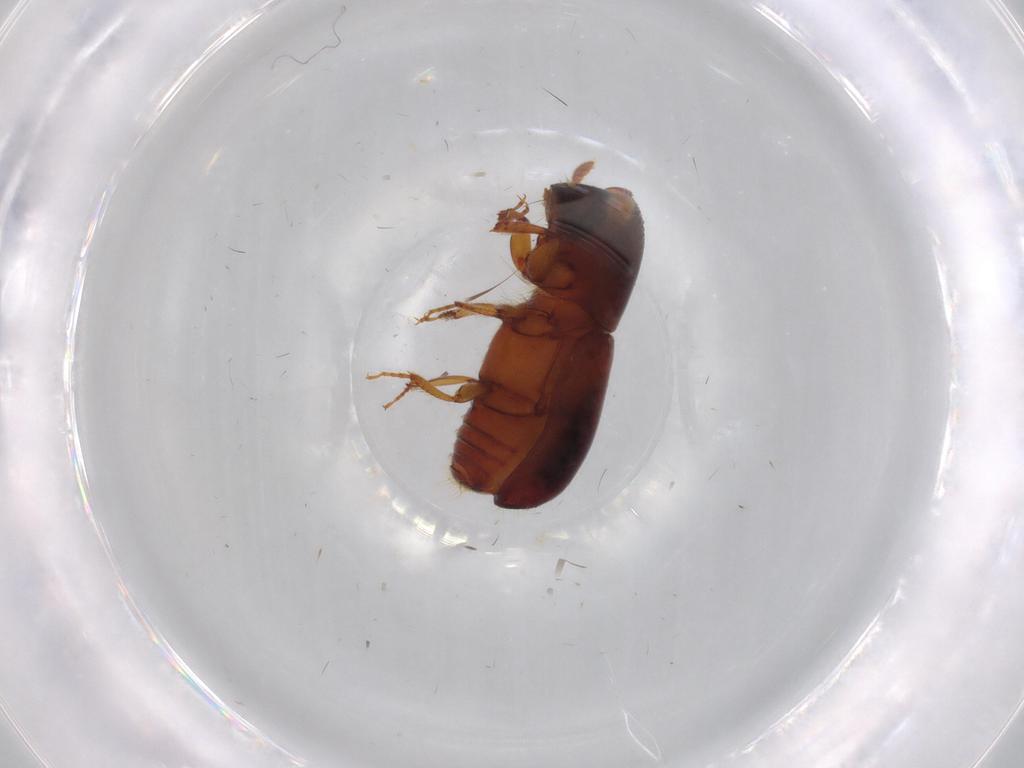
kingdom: Animalia
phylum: Arthropoda
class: Insecta
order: Coleoptera
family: Curculionidae
